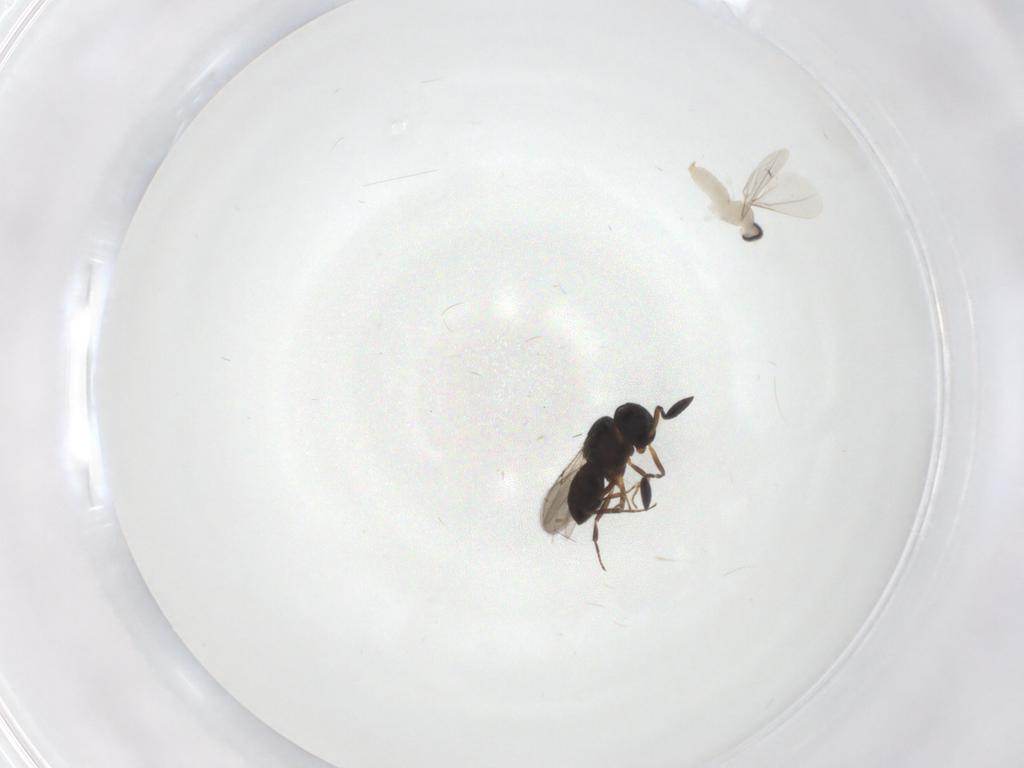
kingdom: Animalia
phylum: Arthropoda
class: Insecta
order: Diptera
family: Cecidomyiidae
